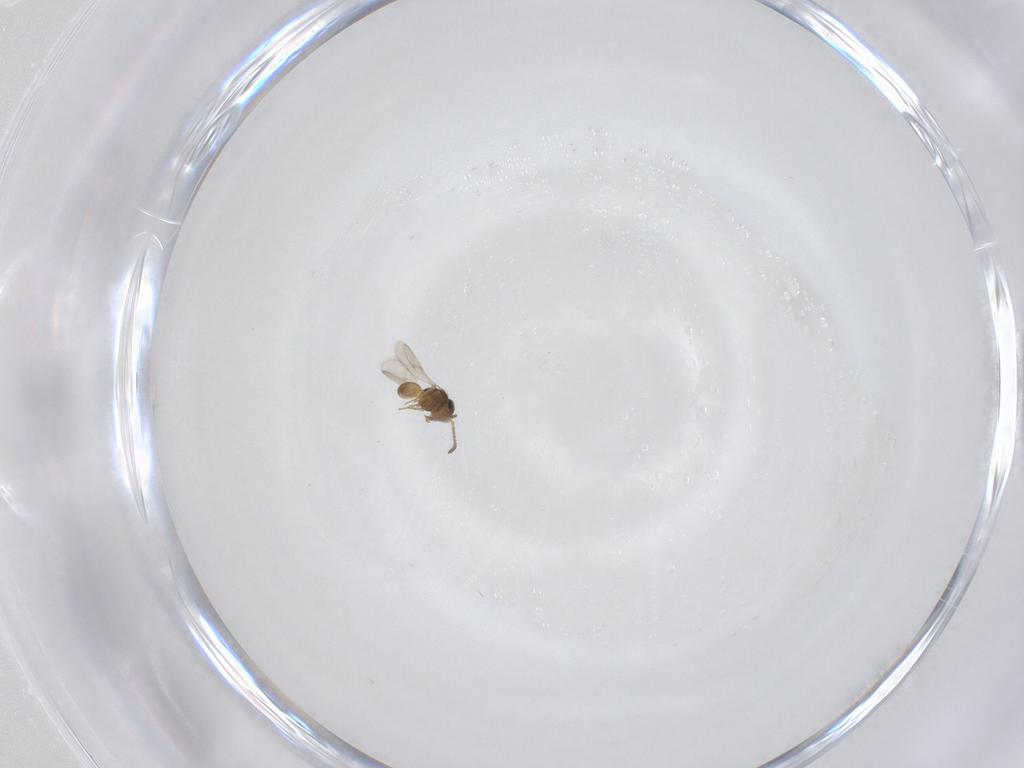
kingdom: Animalia
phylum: Arthropoda
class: Insecta
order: Hymenoptera
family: Scelionidae
